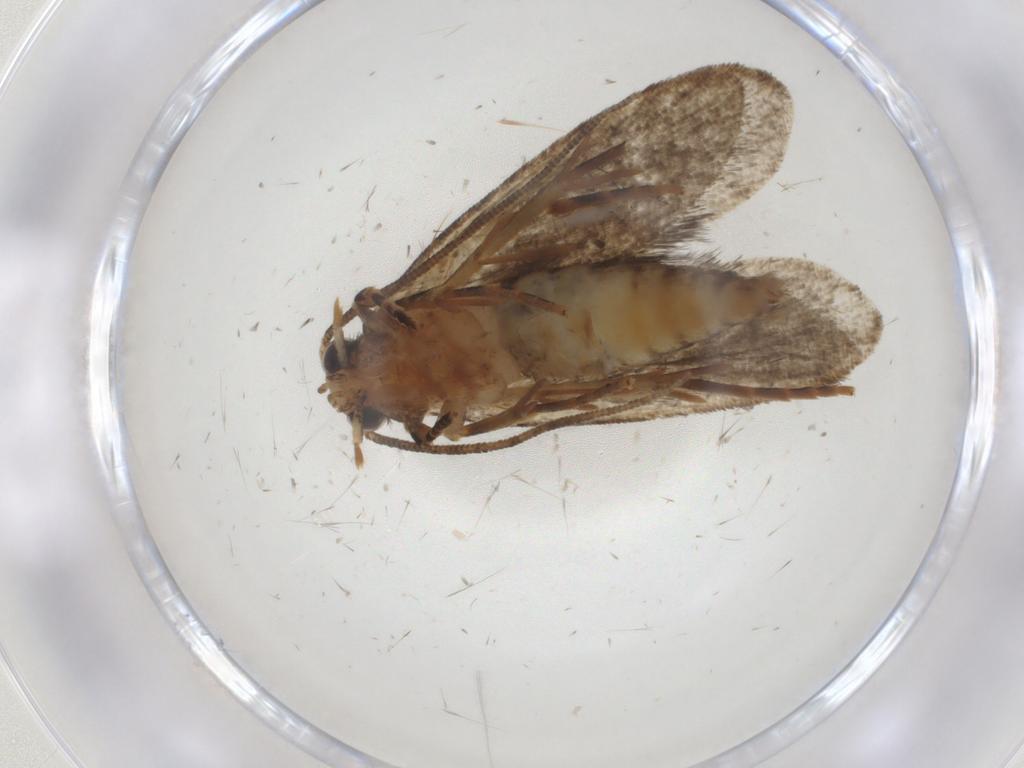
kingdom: Animalia
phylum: Arthropoda
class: Insecta
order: Lepidoptera
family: Tineidae
